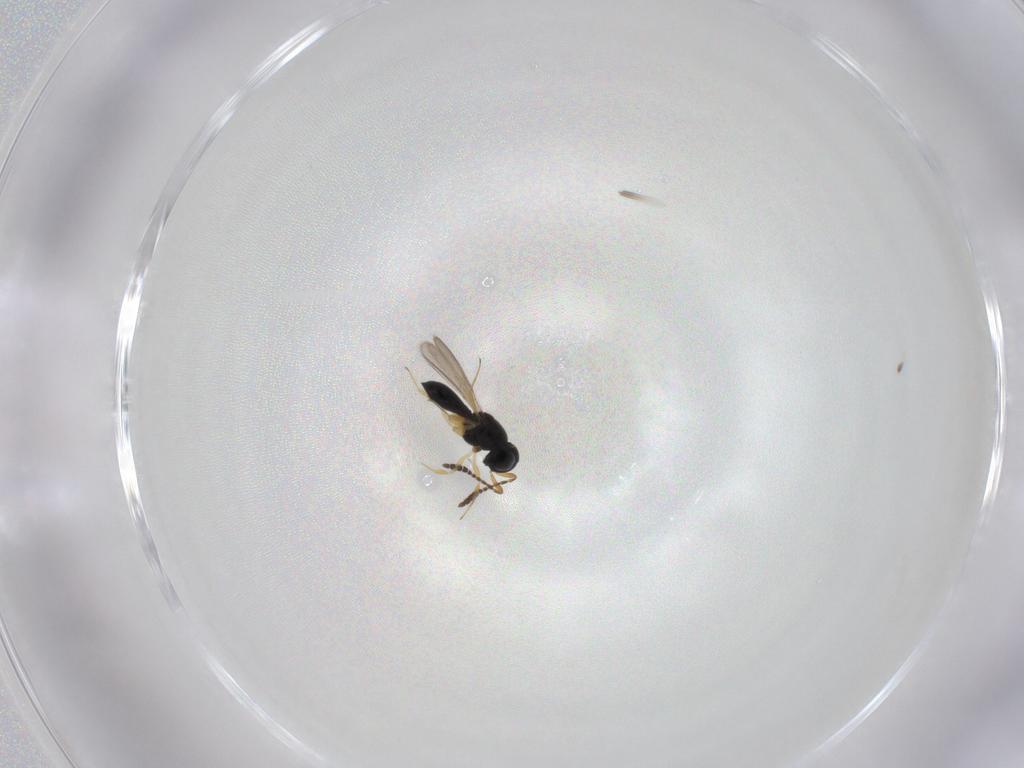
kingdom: Animalia
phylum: Arthropoda
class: Insecta
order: Hymenoptera
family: Scelionidae
